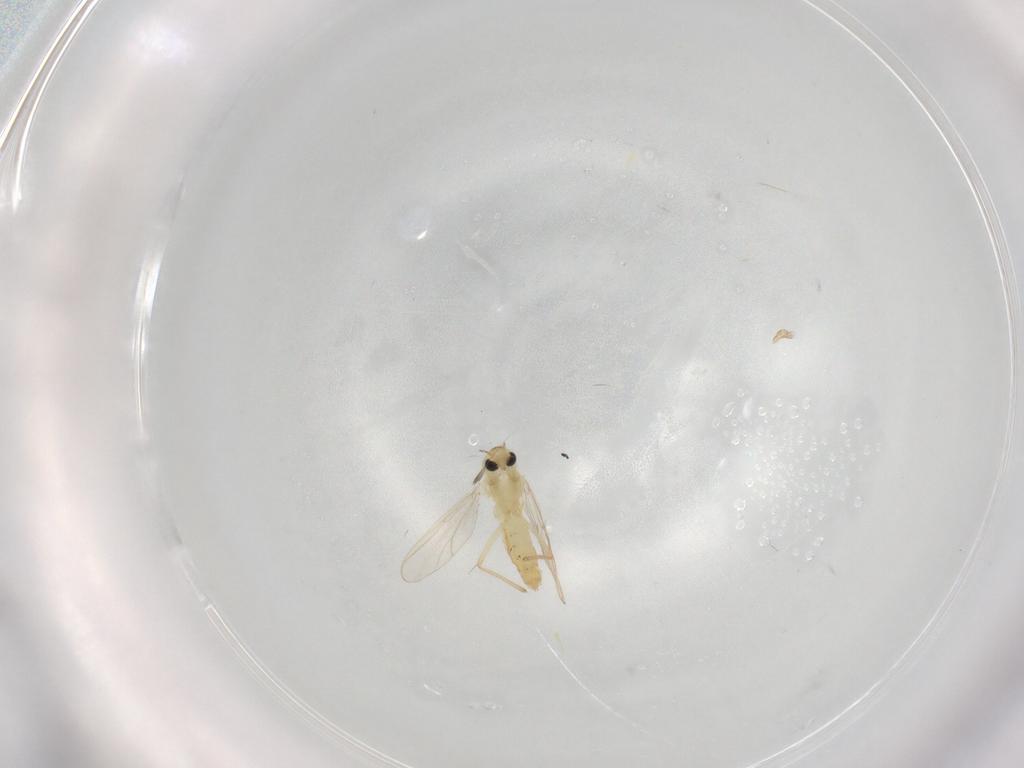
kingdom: Animalia
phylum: Arthropoda
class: Insecta
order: Diptera
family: Chironomidae
